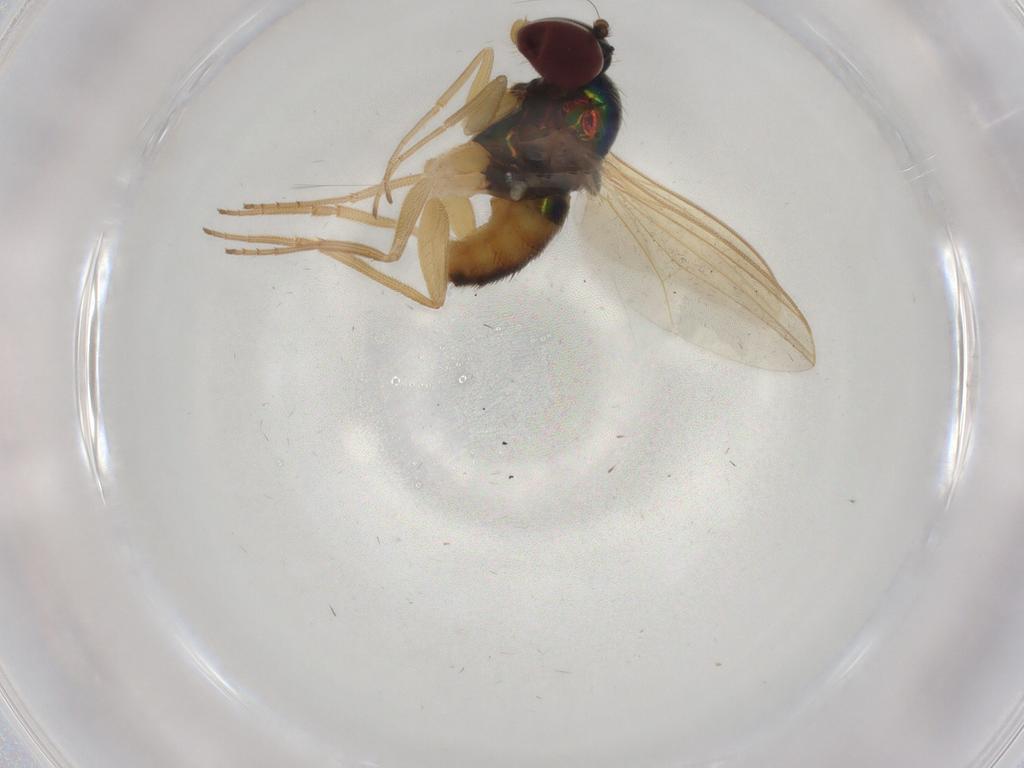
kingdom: Animalia
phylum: Arthropoda
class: Insecta
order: Diptera
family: Dolichopodidae
